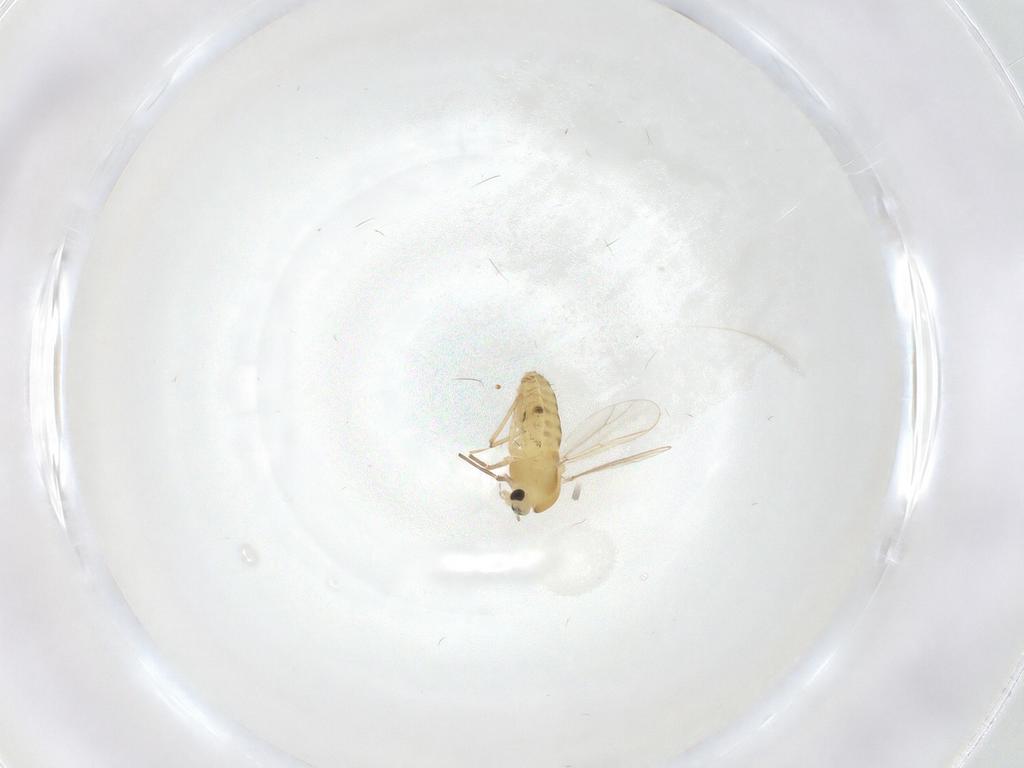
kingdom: Animalia
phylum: Arthropoda
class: Insecta
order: Diptera
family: Chironomidae
